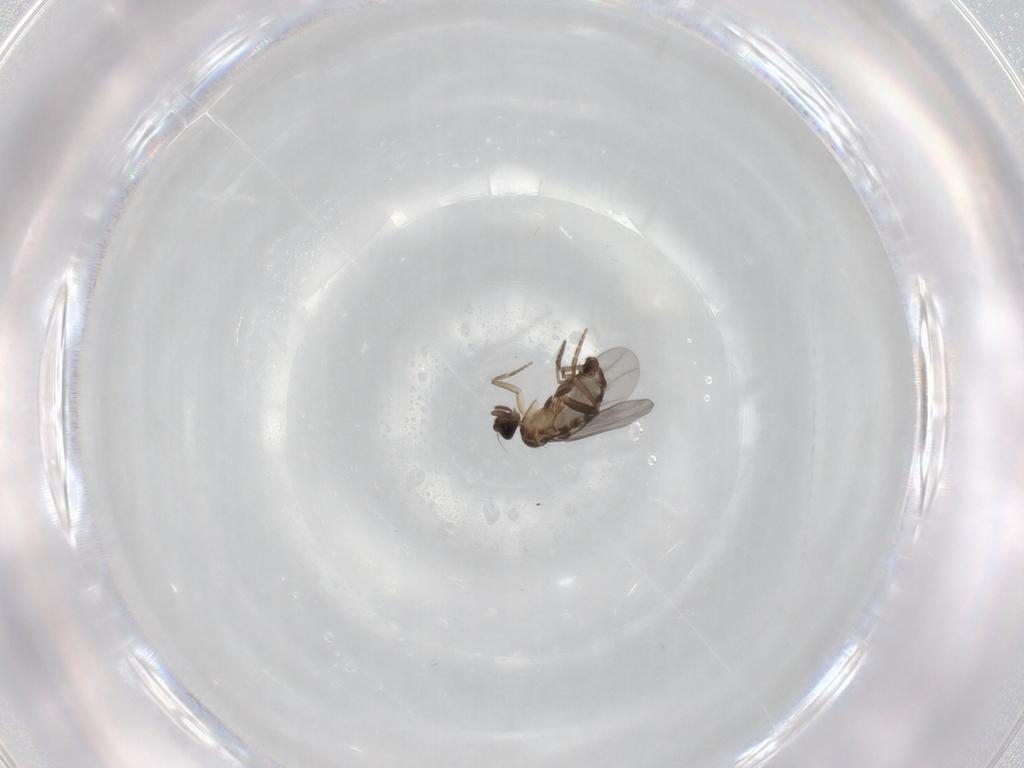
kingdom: Animalia
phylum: Arthropoda
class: Insecta
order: Diptera
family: Chironomidae
